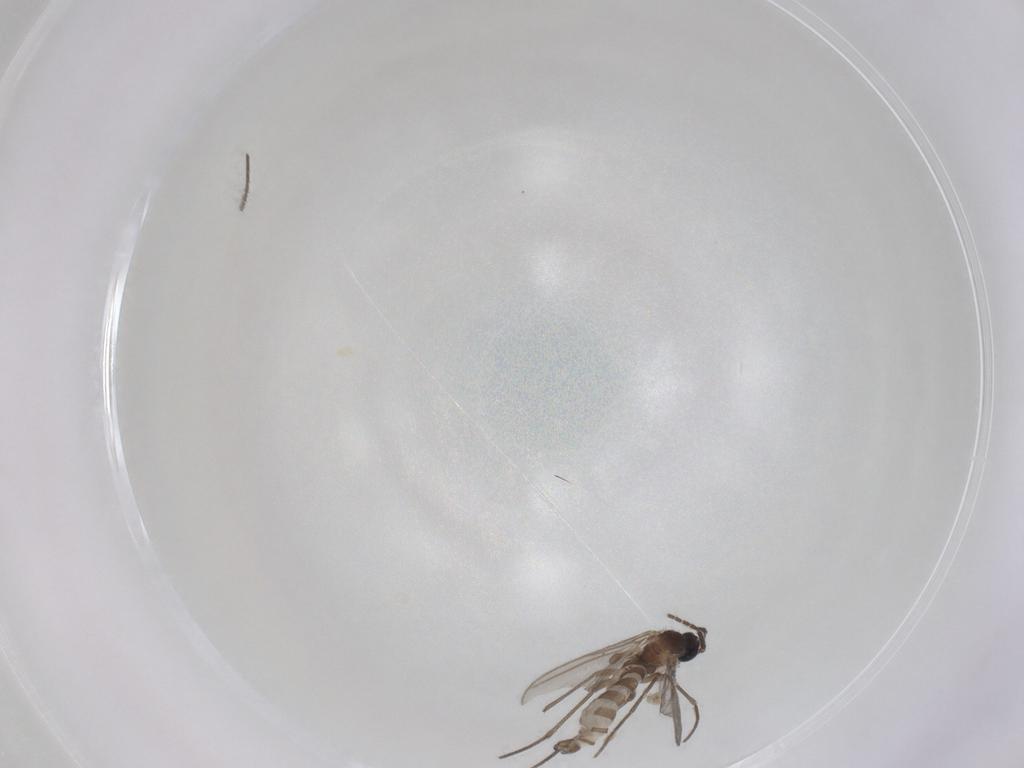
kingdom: Animalia
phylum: Arthropoda
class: Insecta
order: Diptera
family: Sciaridae
